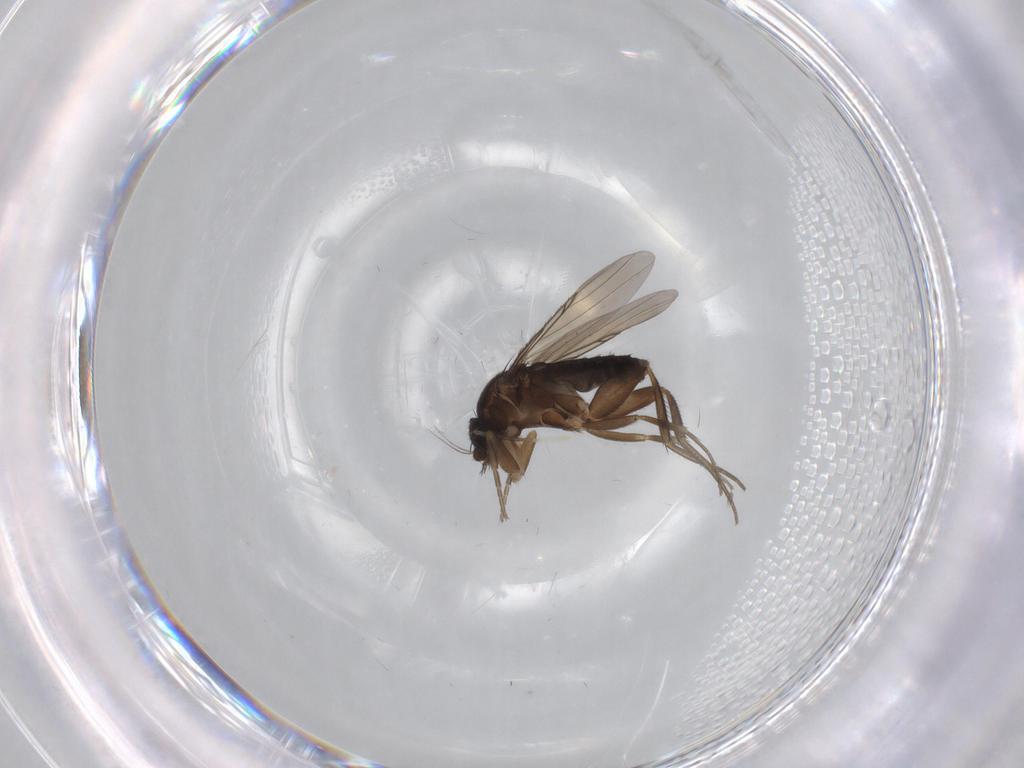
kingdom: Animalia
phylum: Arthropoda
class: Insecta
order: Diptera
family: Phoridae
